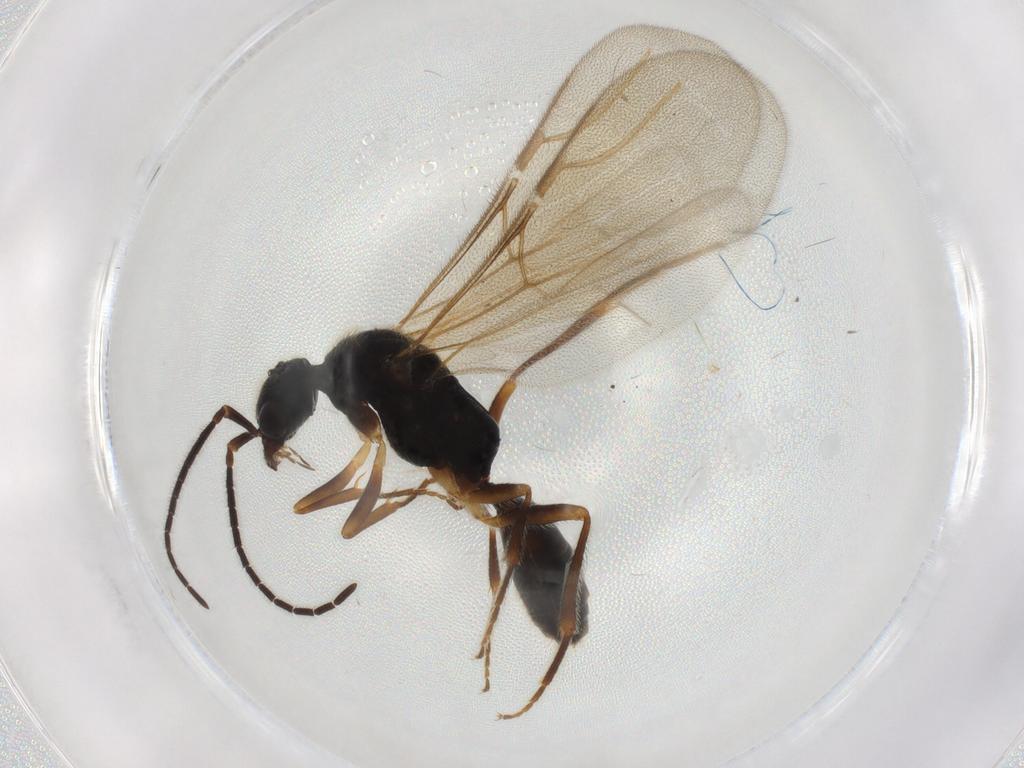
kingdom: Animalia
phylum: Arthropoda
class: Insecta
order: Hymenoptera
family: Bethylidae
